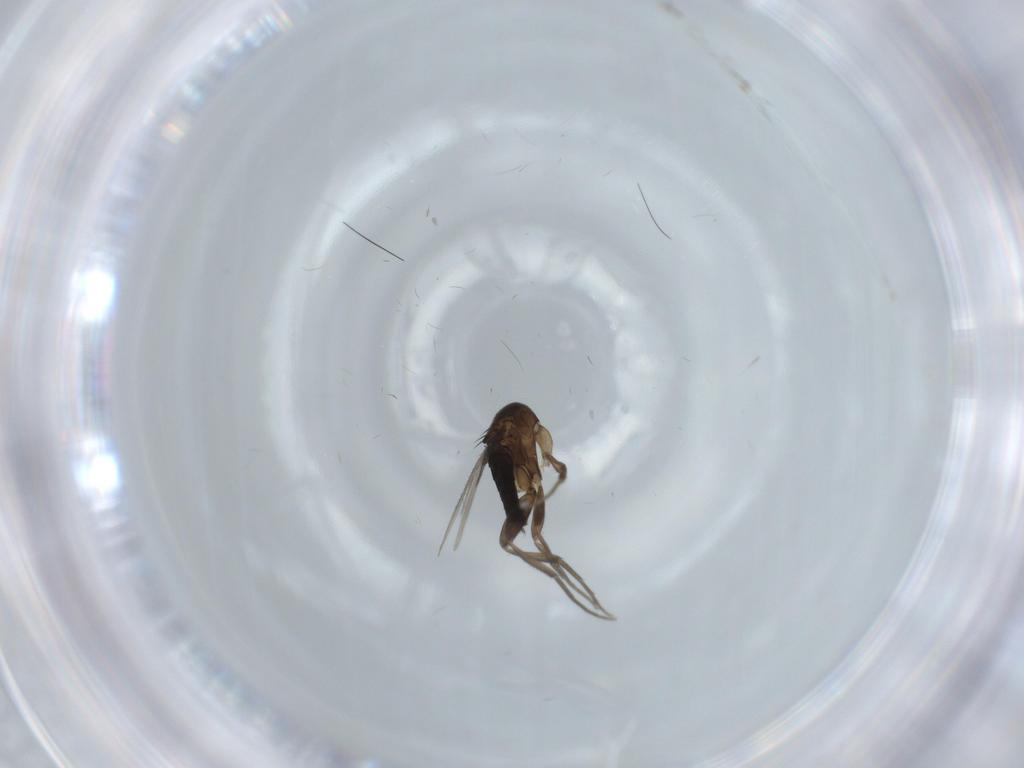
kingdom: Animalia
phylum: Arthropoda
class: Insecta
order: Diptera
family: Phoridae
